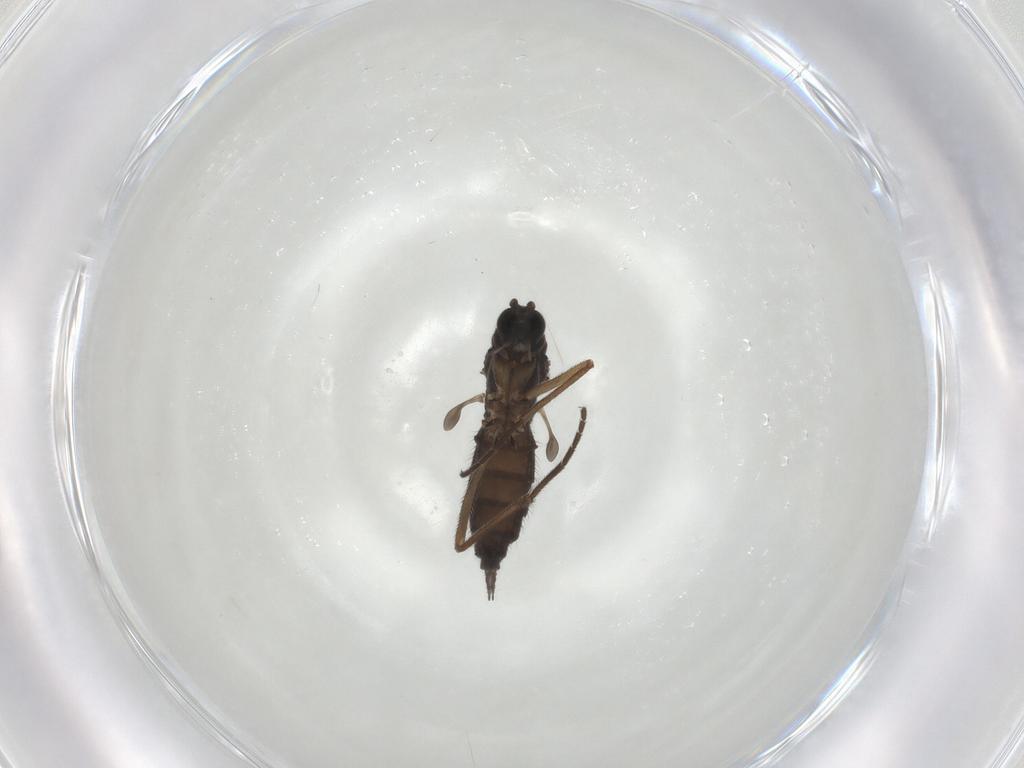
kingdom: Animalia
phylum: Arthropoda
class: Insecta
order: Diptera
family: Sciaridae
